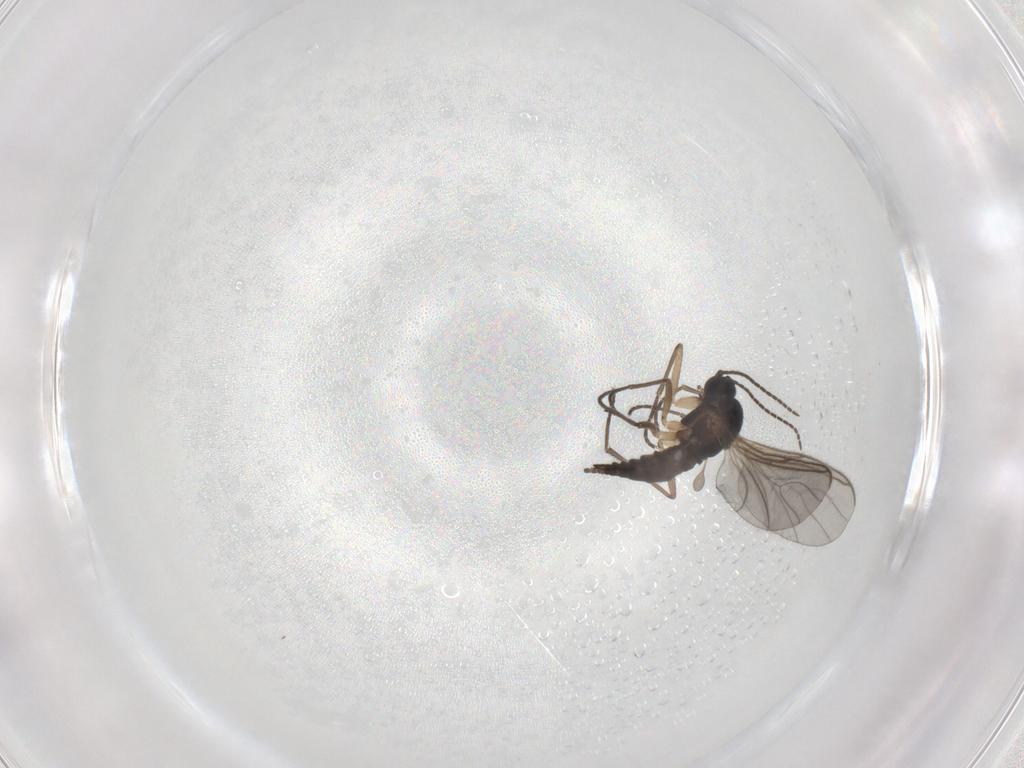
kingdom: Animalia
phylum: Arthropoda
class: Insecta
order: Diptera
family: Sciaridae
